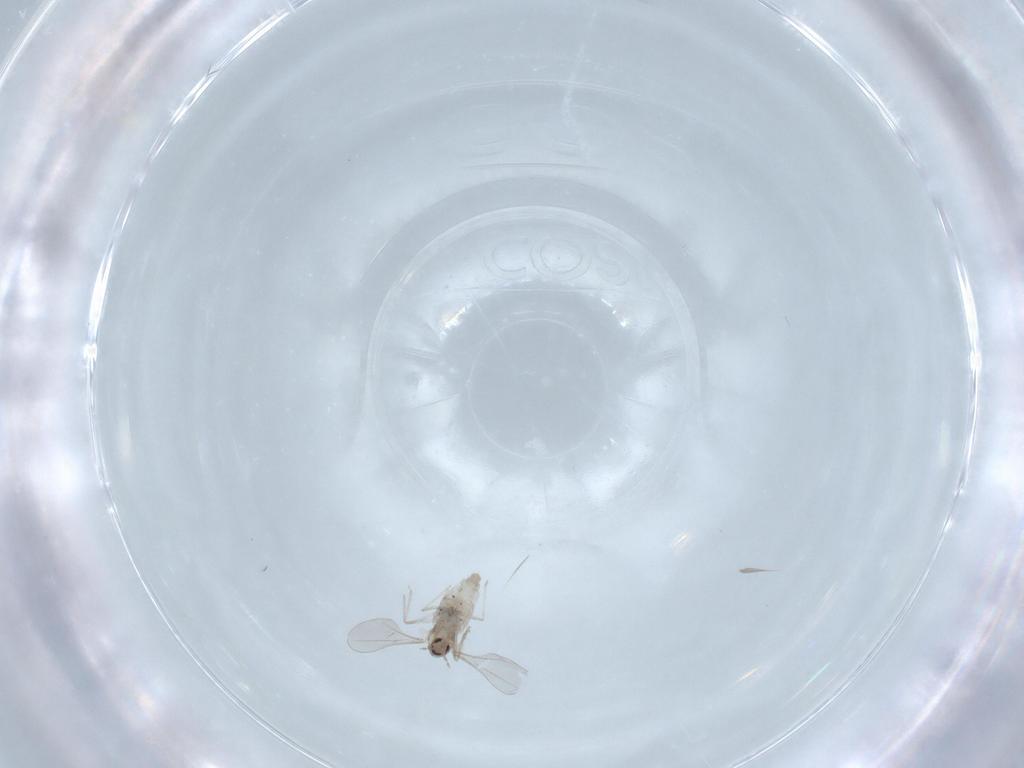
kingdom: Animalia
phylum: Arthropoda
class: Insecta
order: Diptera
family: Cecidomyiidae
